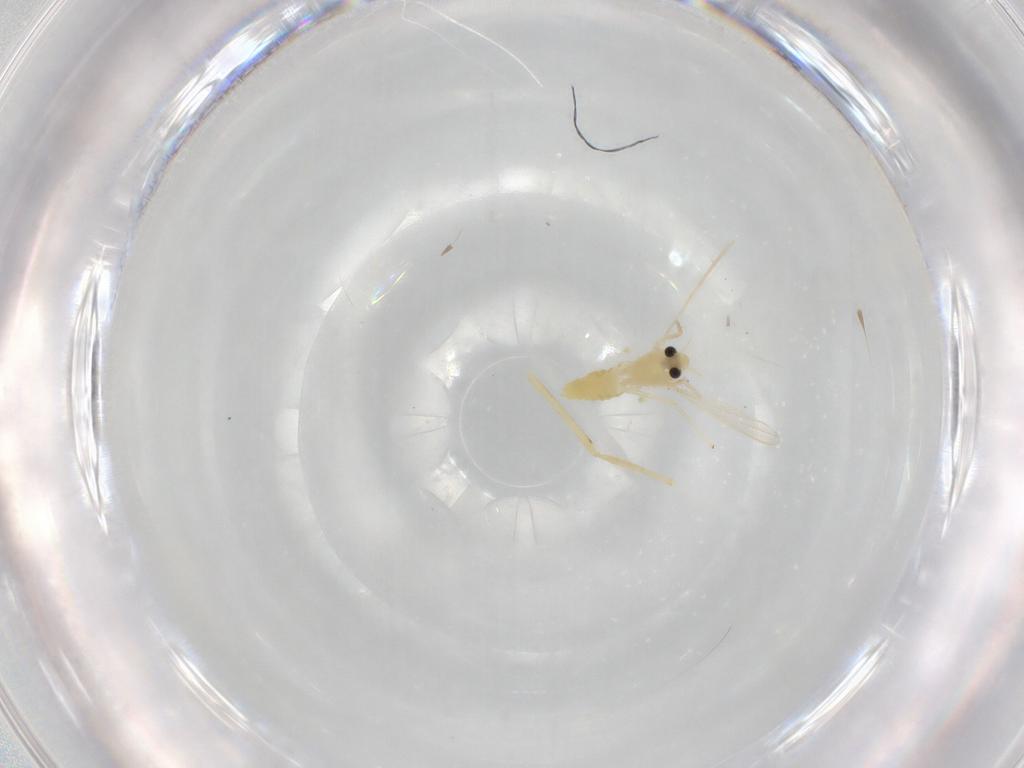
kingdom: Animalia
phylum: Arthropoda
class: Insecta
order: Diptera
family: Chironomidae
